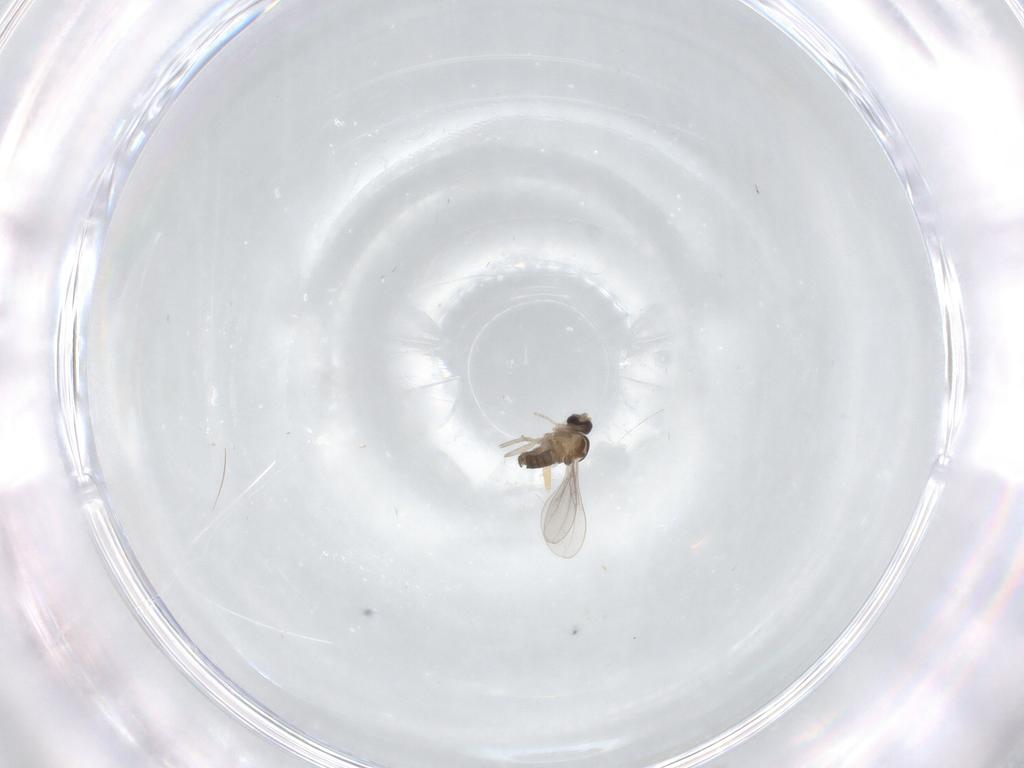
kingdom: Animalia
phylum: Arthropoda
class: Insecta
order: Diptera
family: Cecidomyiidae
